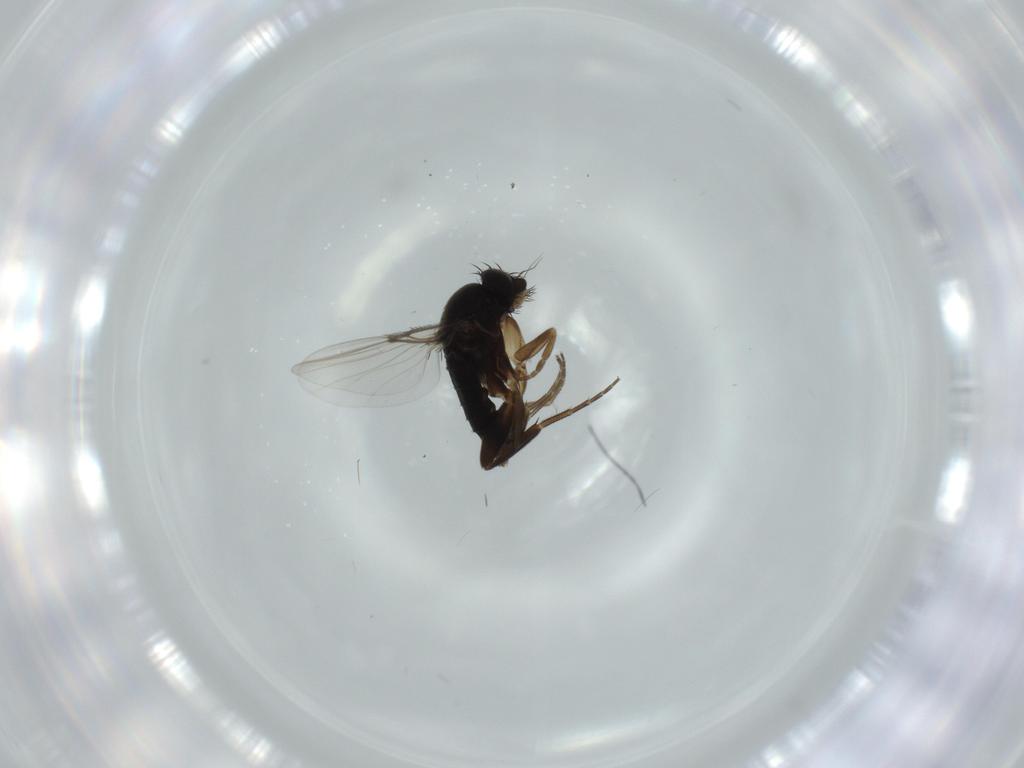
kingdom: Animalia
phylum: Arthropoda
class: Insecta
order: Diptera
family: Phoridae
